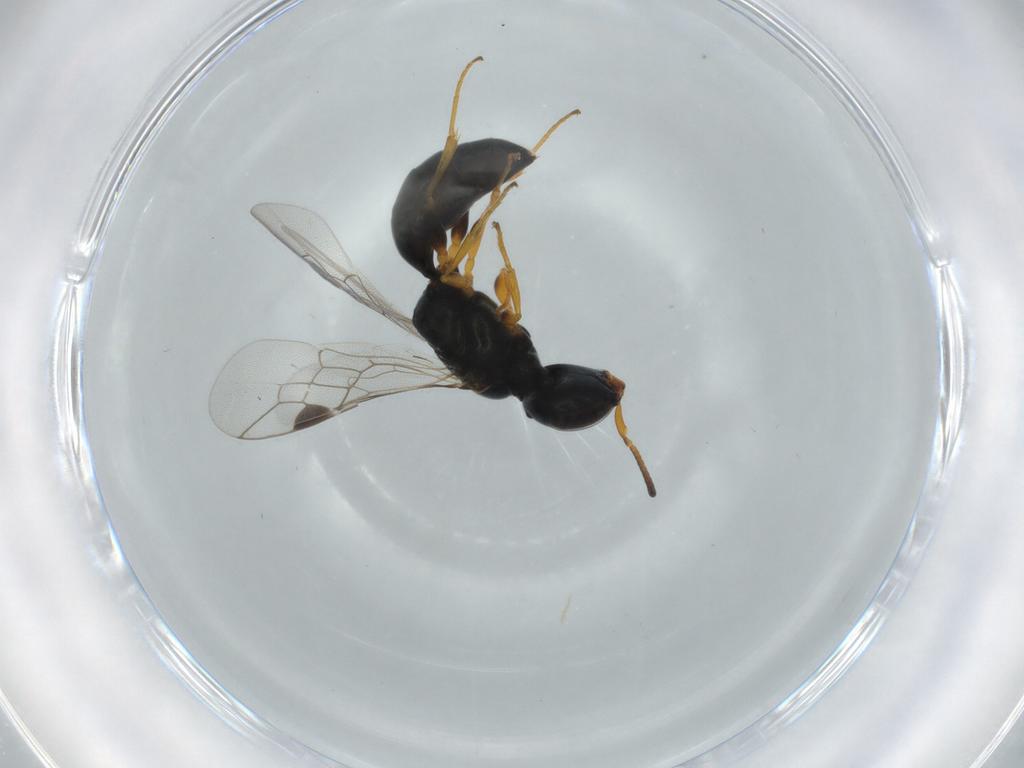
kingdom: Animalia
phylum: Arthropoda
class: Insecta
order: Hymenoptera
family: Pemphredonidae
